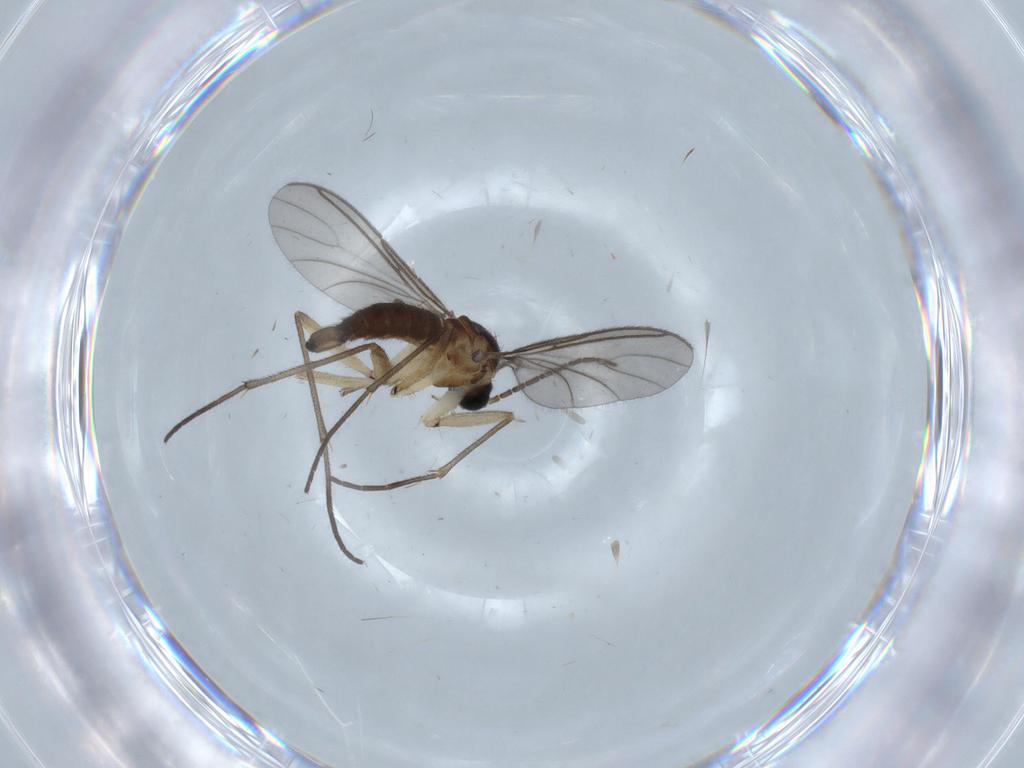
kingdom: Animalia
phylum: Arthropoda
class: Insecta
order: Diptera
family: Sciaridae
